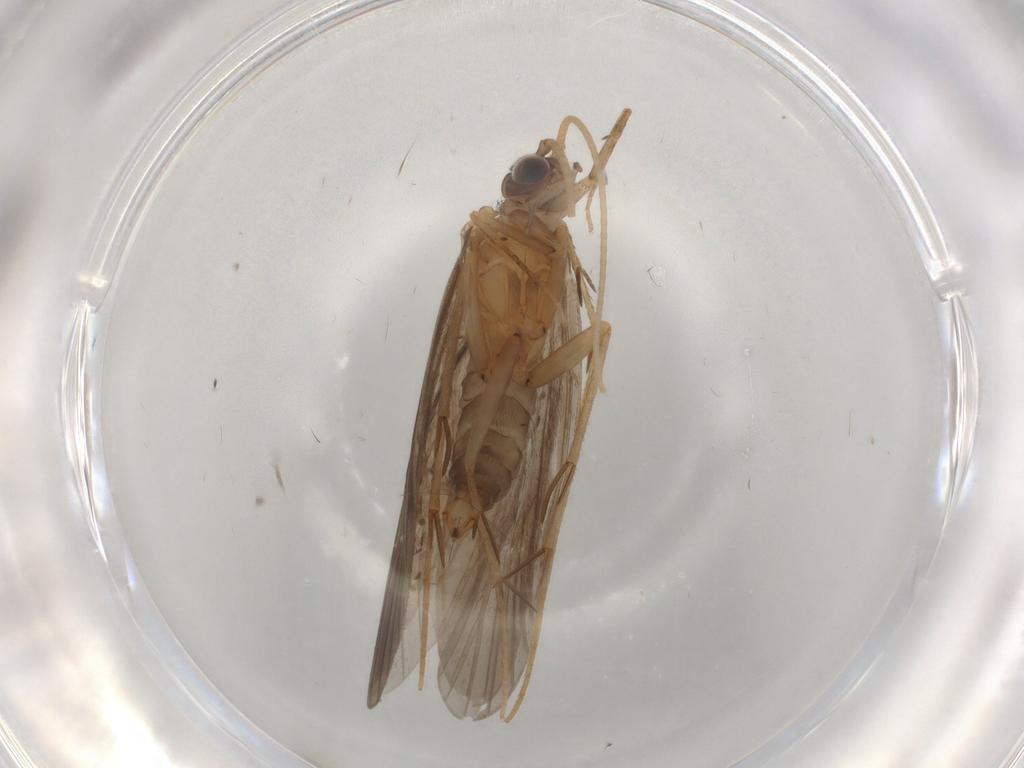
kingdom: Animalia
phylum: Arthropoda
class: Insecta
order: Trichoptera
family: Philopotamidae
